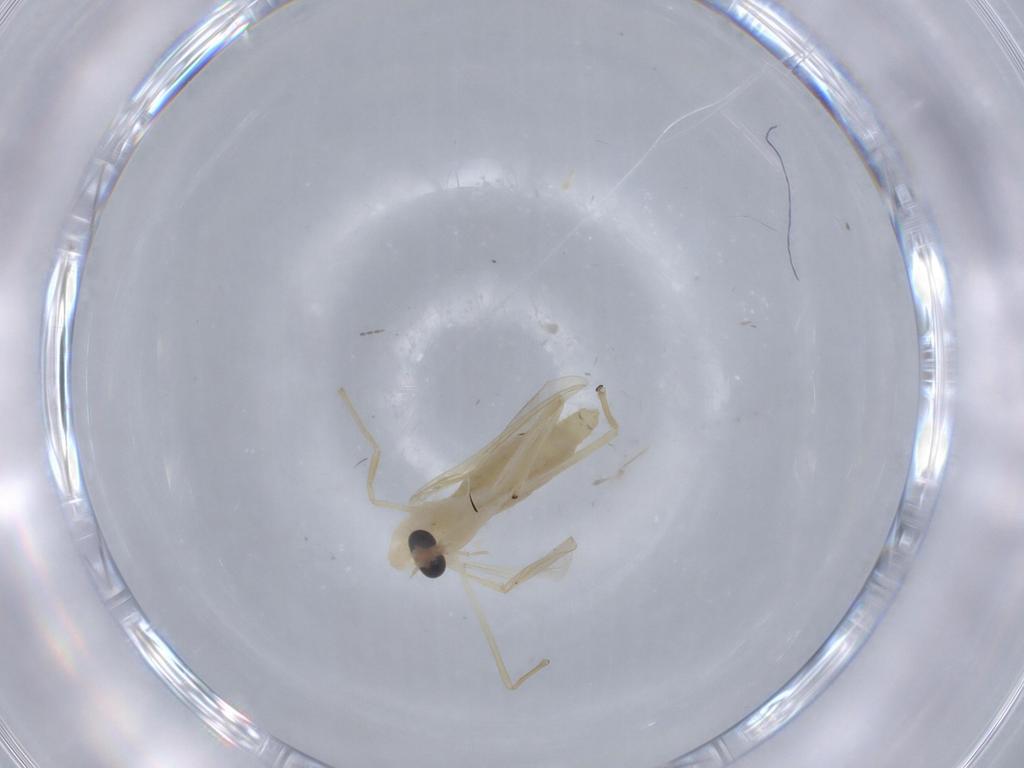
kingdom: Animalia
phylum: Arthropoda
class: Insecta
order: Diptera
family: Chironomidae
